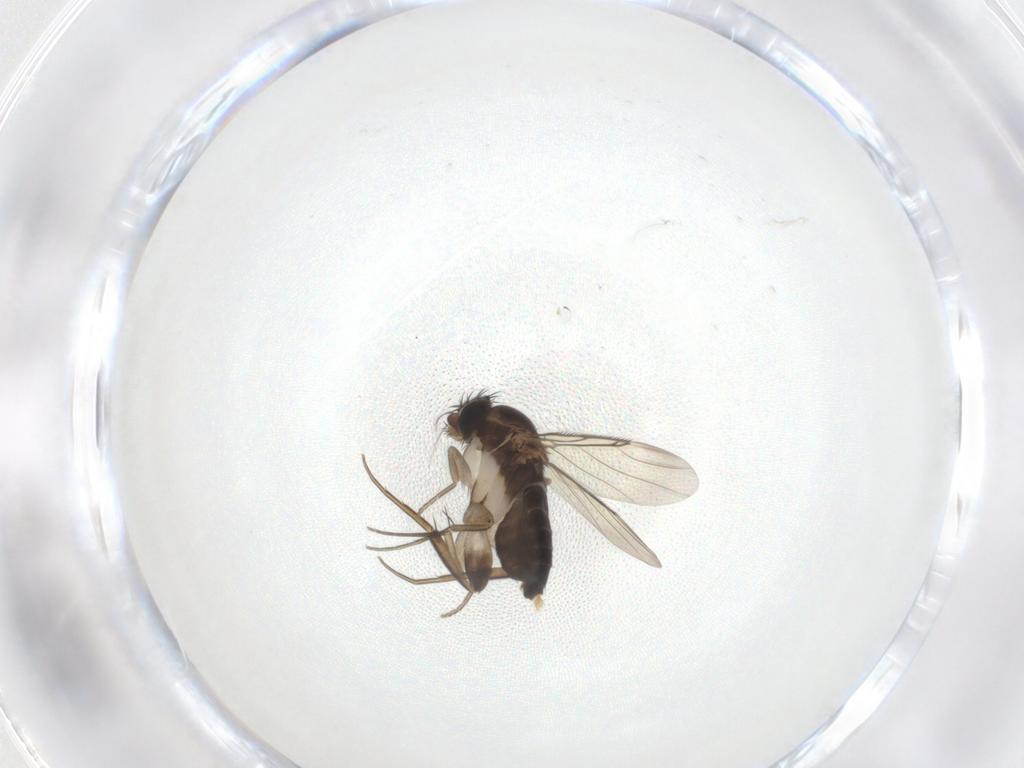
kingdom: Animalia
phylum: Arthropoda
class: Insecta
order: Diptera
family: Phoridae
